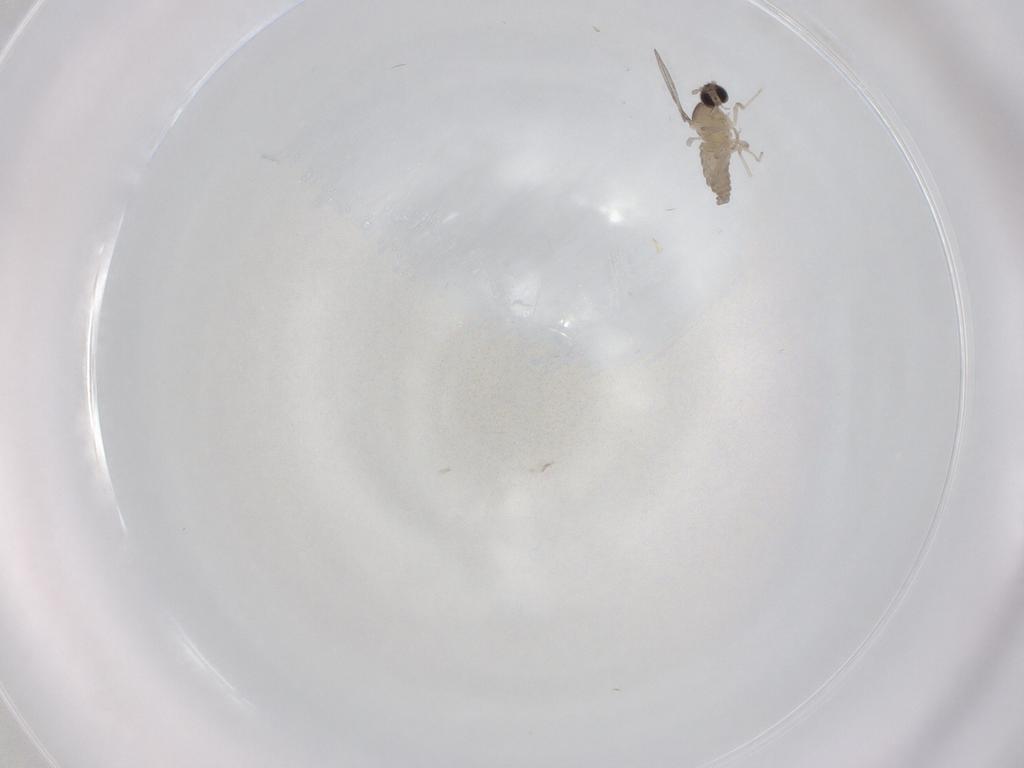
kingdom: Animalia
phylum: Arthropoda
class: Insecta
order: Diptera
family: Cecidomyiidae
